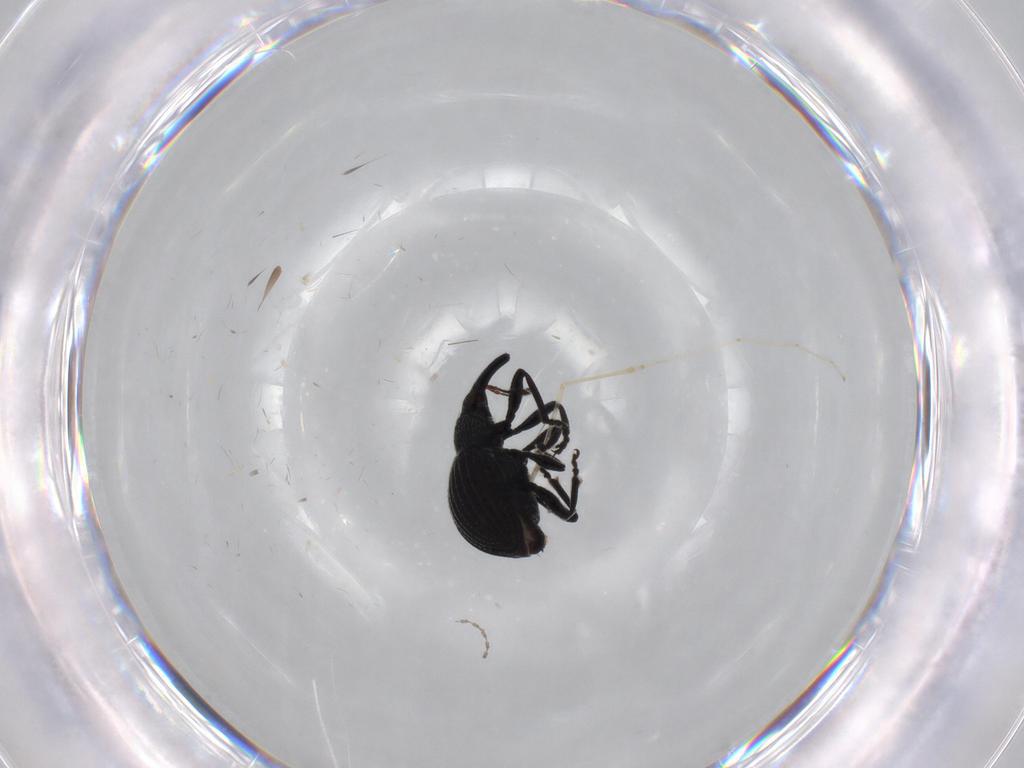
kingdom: Animalia
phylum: Arthropoda
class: Insecta
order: Coleoptera
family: Brentidae
